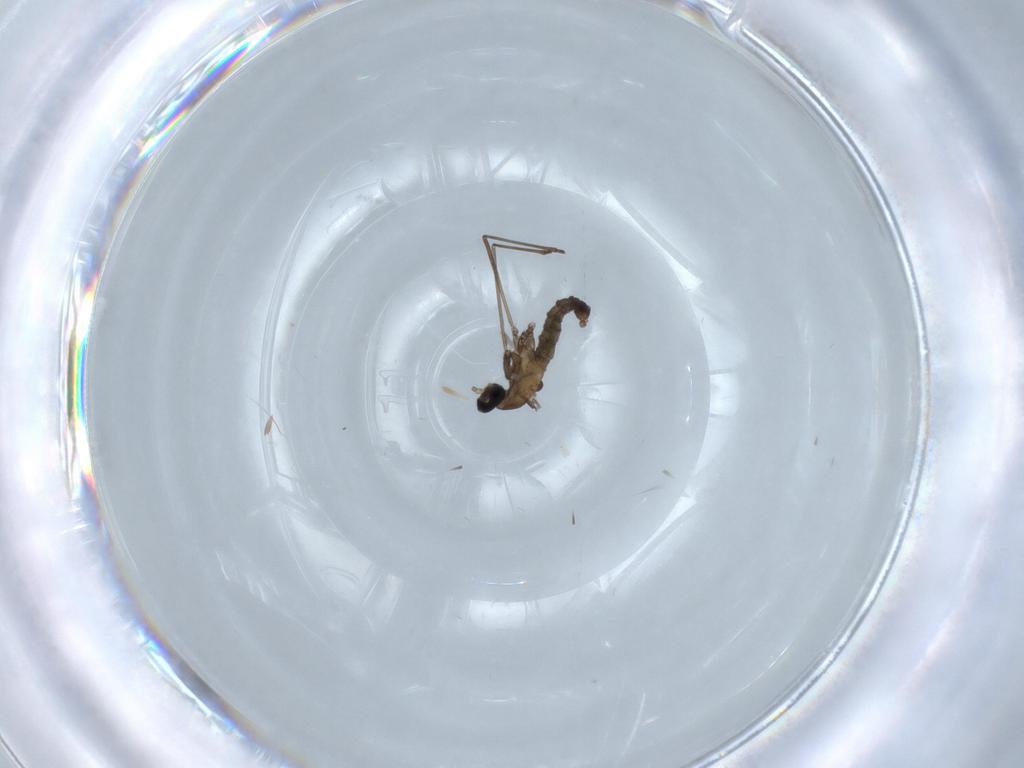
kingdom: Animalia
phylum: Arthropoda
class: Insecta
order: Diptera
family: Cecidomyiidae
